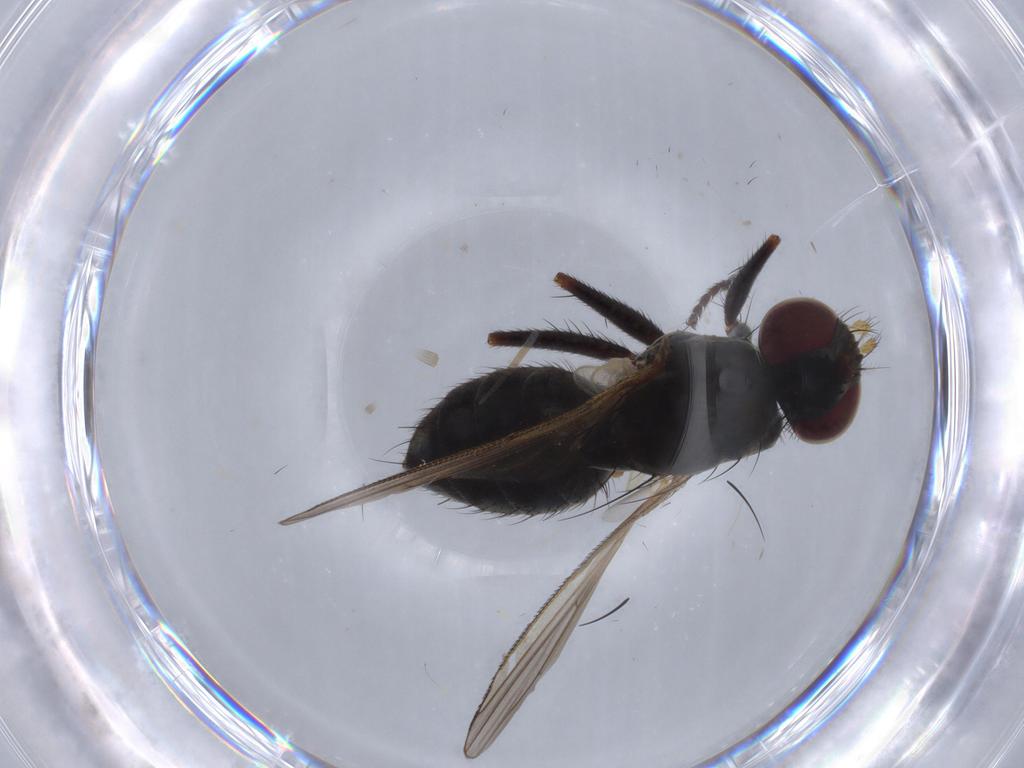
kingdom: Animalia
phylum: Arthropoda
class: Insecta
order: Diptera
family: Muscidae
